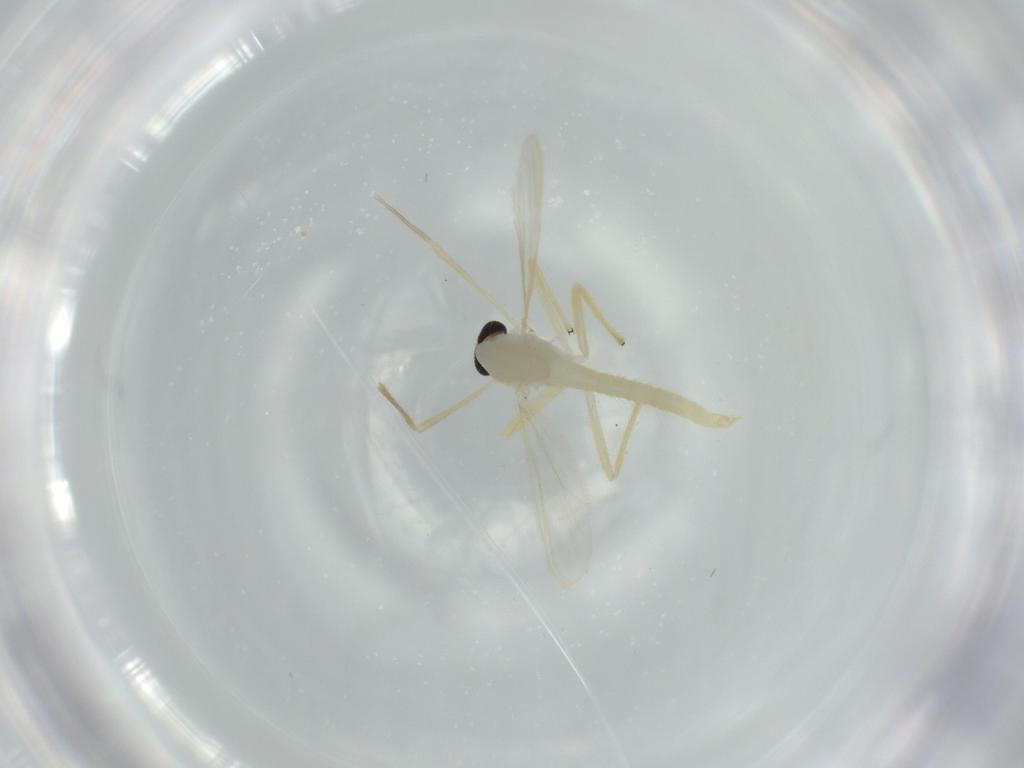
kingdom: Animalia
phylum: Arthropoda
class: Insecta
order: Diptera
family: Chironomidae
